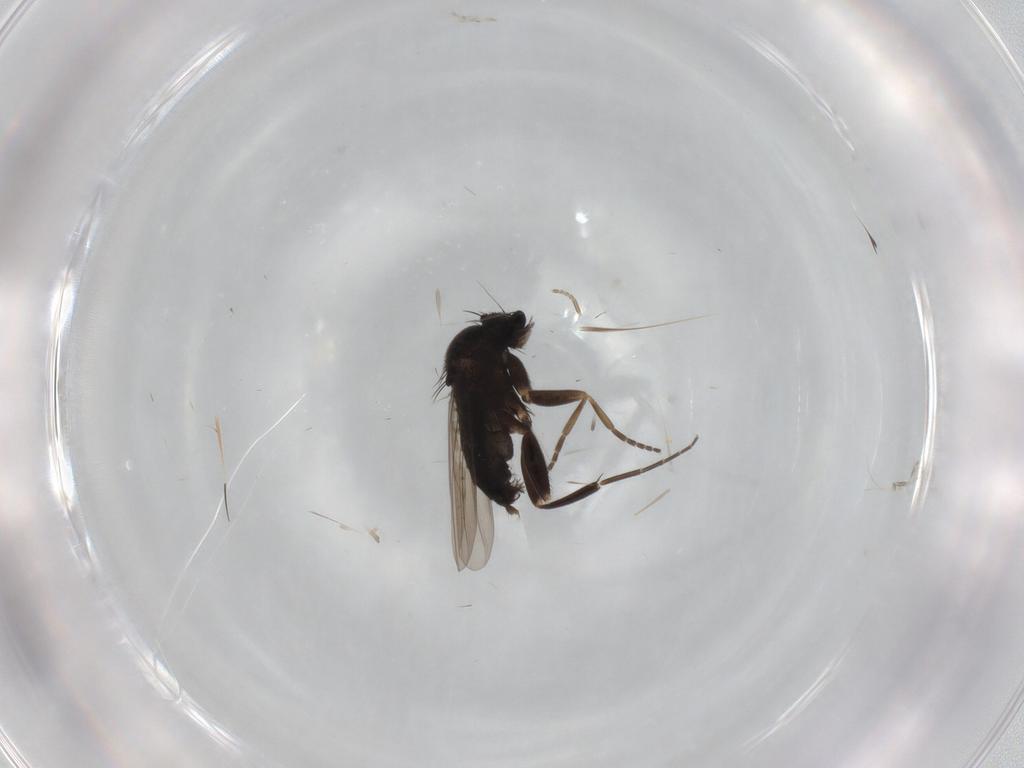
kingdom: Animalia
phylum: Arthropoda
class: Insecta
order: Diptera
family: Phoridae
